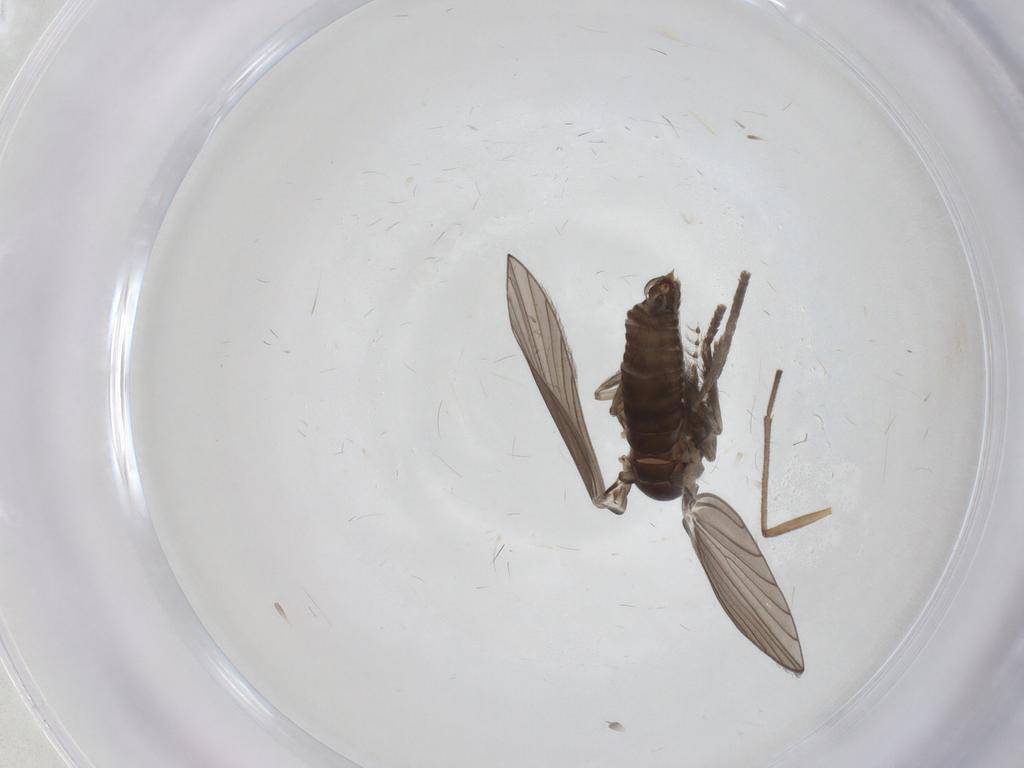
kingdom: Animalia
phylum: Arthropoda
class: Insecta
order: Diptera
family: Psychodidae
